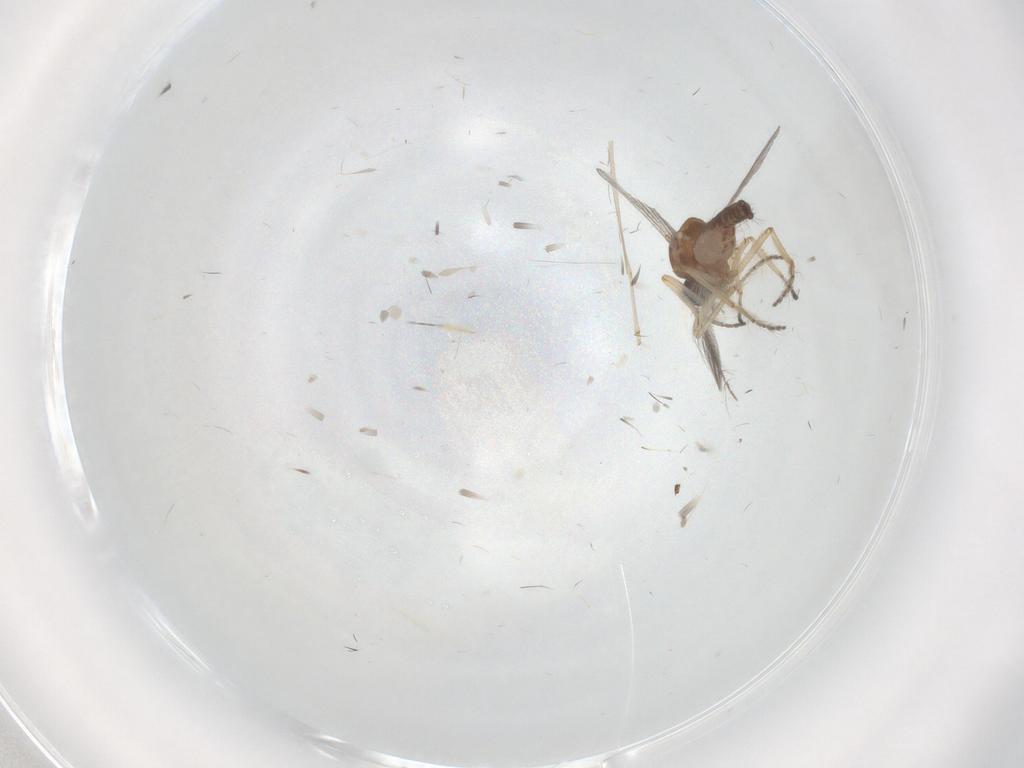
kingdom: Animalia
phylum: Arthropoda
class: Insecta
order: Diptera
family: Ceratopogonidae
